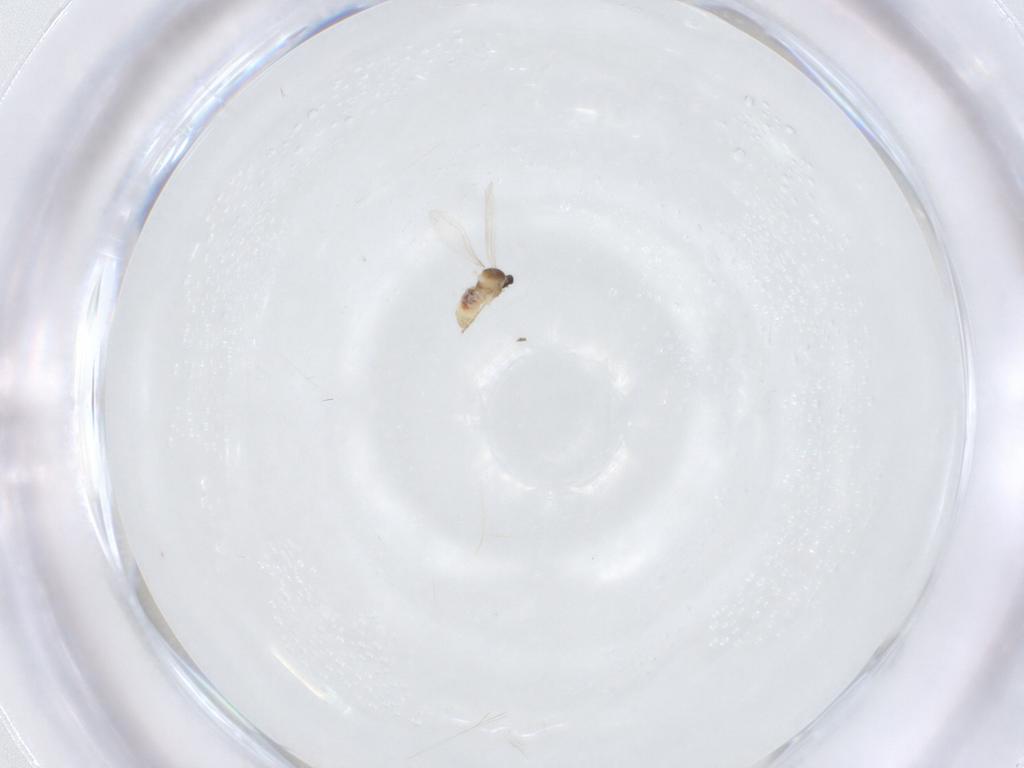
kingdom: Animalia
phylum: Arthropoda
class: Insecta
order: Diptera
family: Cecidomyiidae
